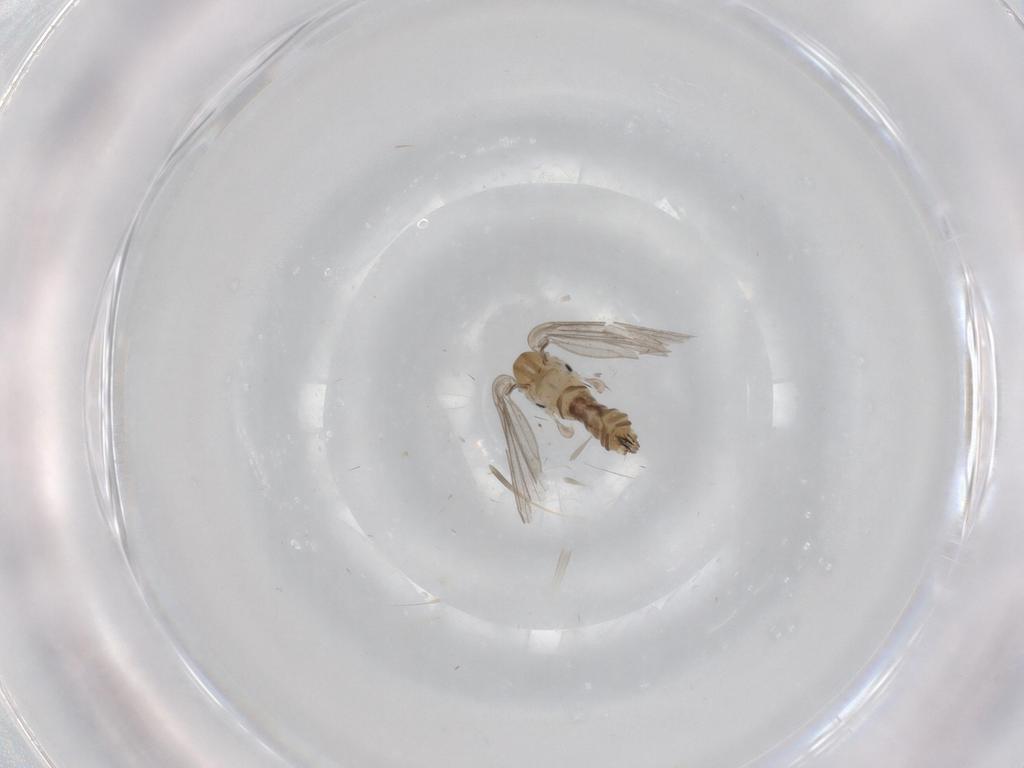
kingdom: Animalia
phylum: Arthropoda
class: Insecta
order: Diptera
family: Psychodidae
